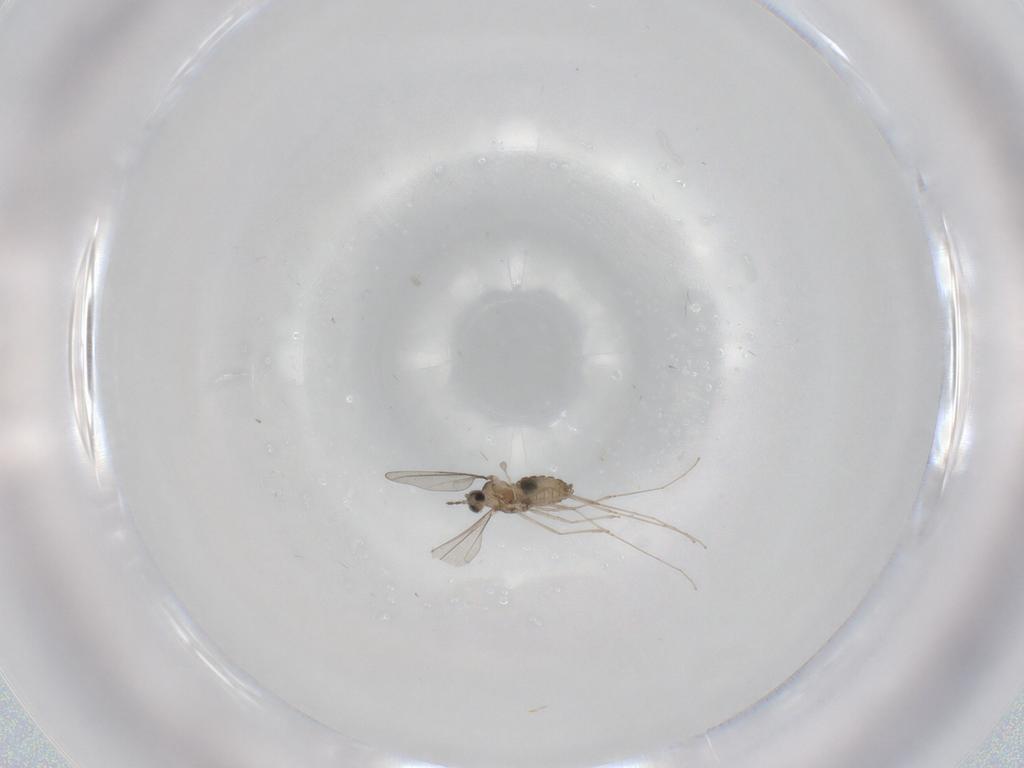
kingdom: Animalia
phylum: Arthropoda
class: Insecta
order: Diptera
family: Cecidomyiidae
